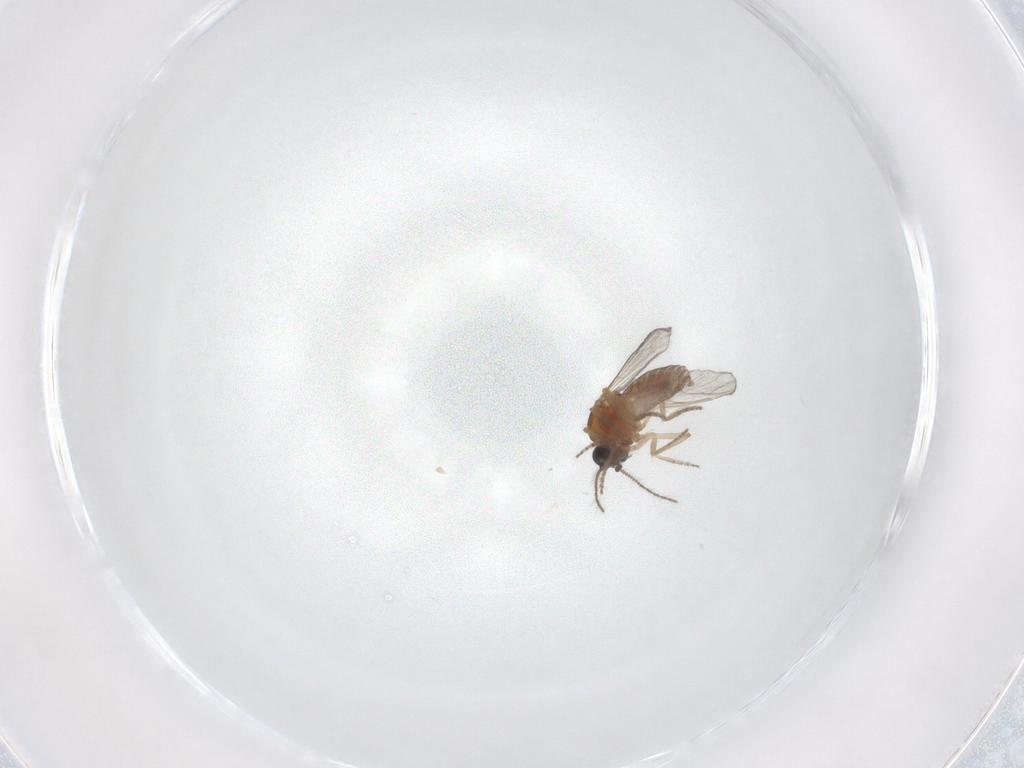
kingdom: Animalia
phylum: Arthropoda
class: Insecta
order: Diptera
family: Ceratopogonidae
